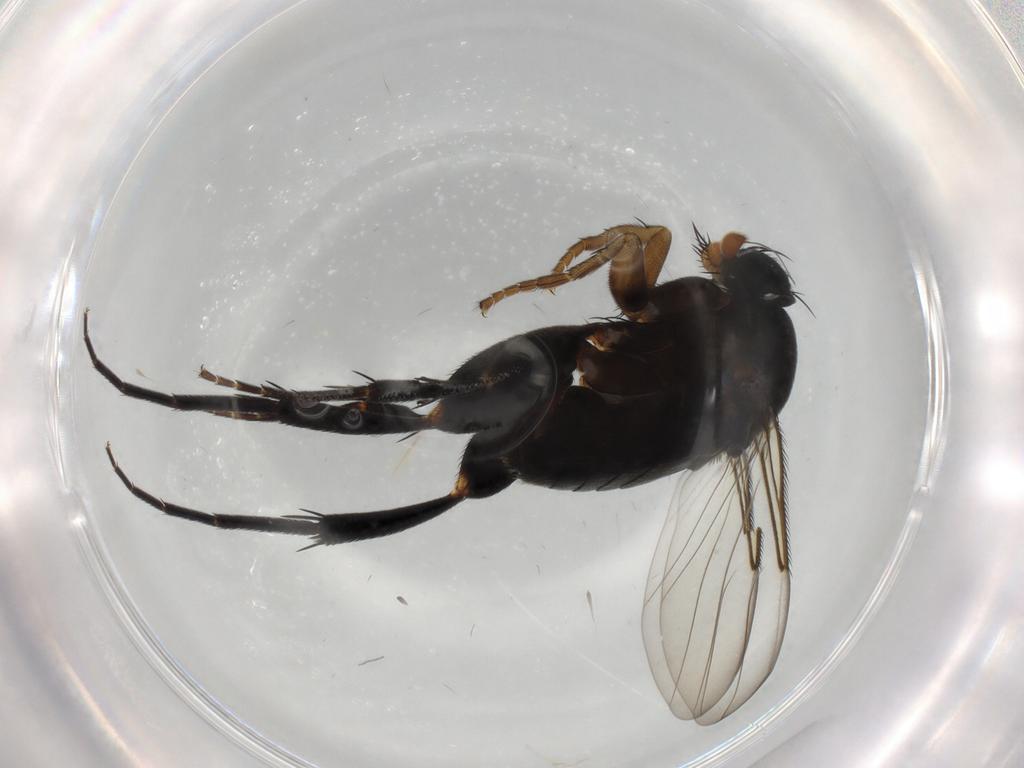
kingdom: Animalia
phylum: Arthropoda
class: Insecta
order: Diptera
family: Phoridae
